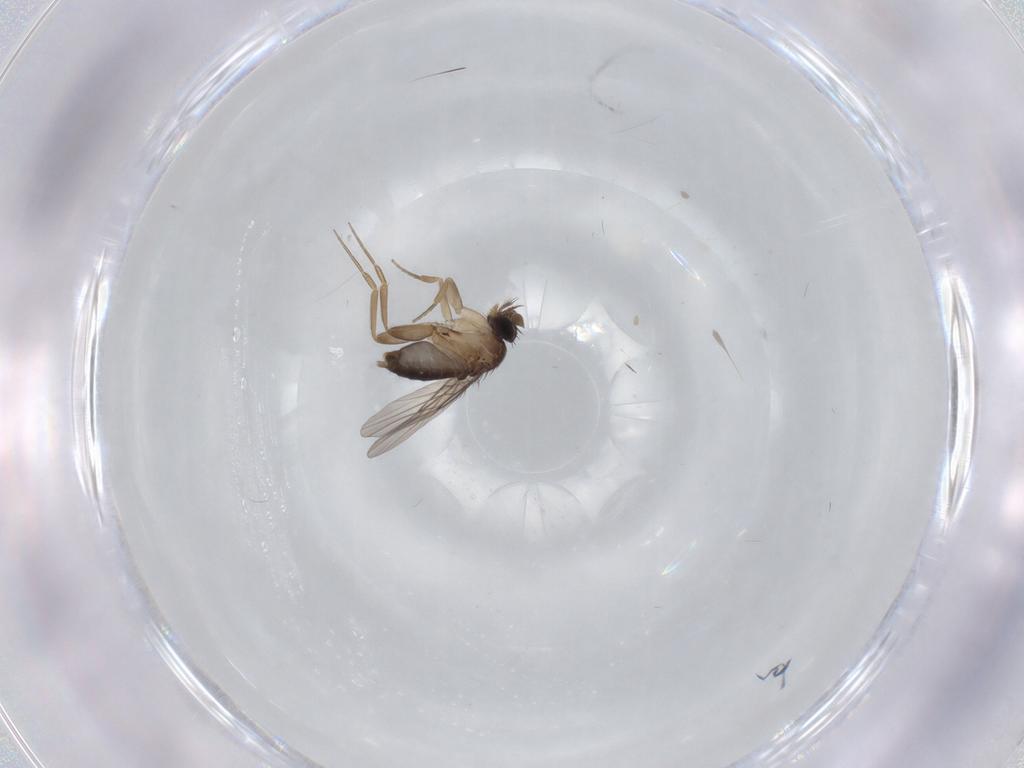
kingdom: Animalia
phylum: Arthropoda
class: Insecta
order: Diptera
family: Phoridae
